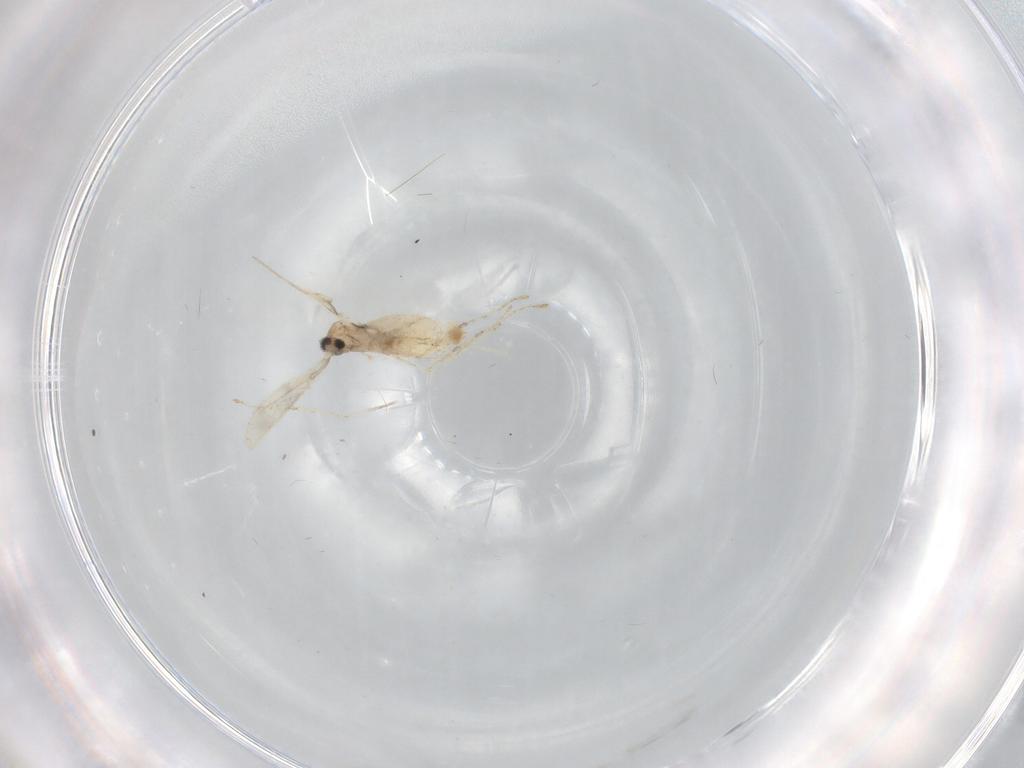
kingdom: Animalia
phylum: Arthropoda
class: Insecta
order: Diptera
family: Cecidomyiidae
